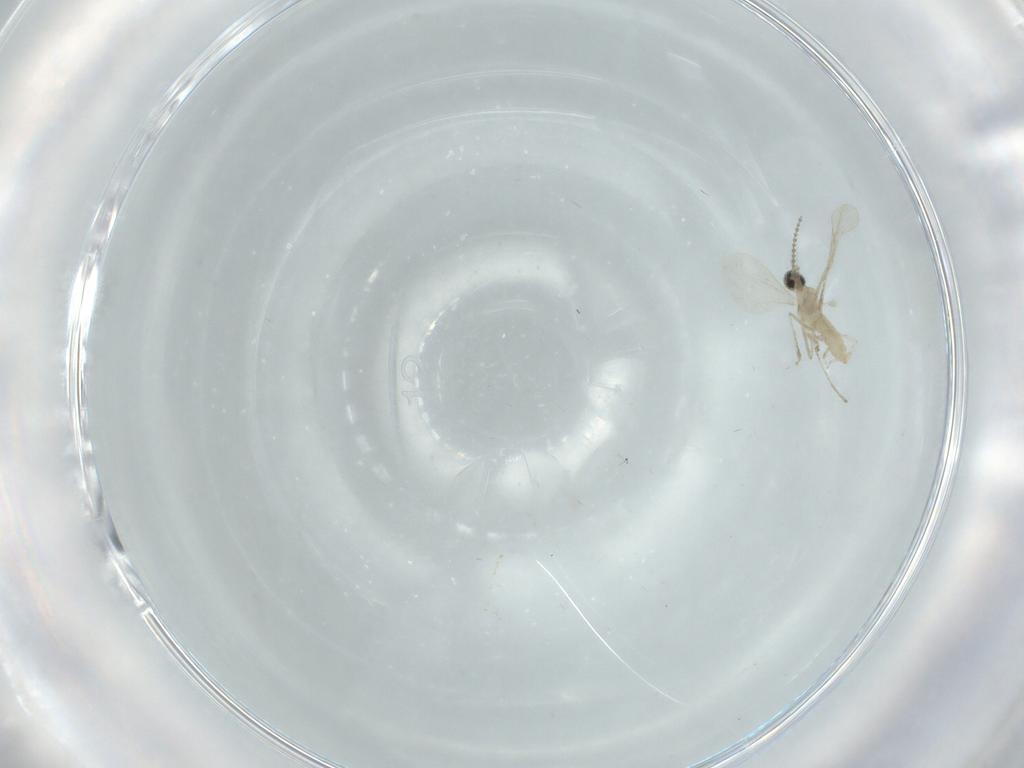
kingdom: Animalia
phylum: Arthropoda
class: Insecta
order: Diptera
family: Cecidomyiidae
